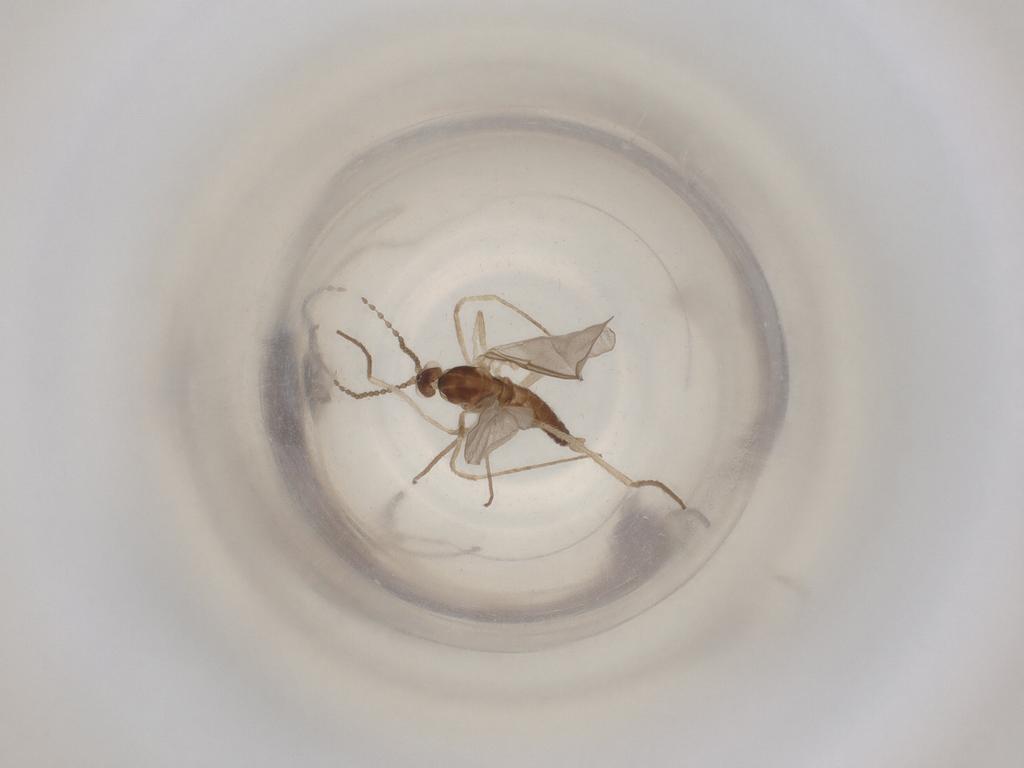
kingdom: Animalia
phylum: Arthropoda
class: Insecta
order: Diptera
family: Cecidomyiidae
